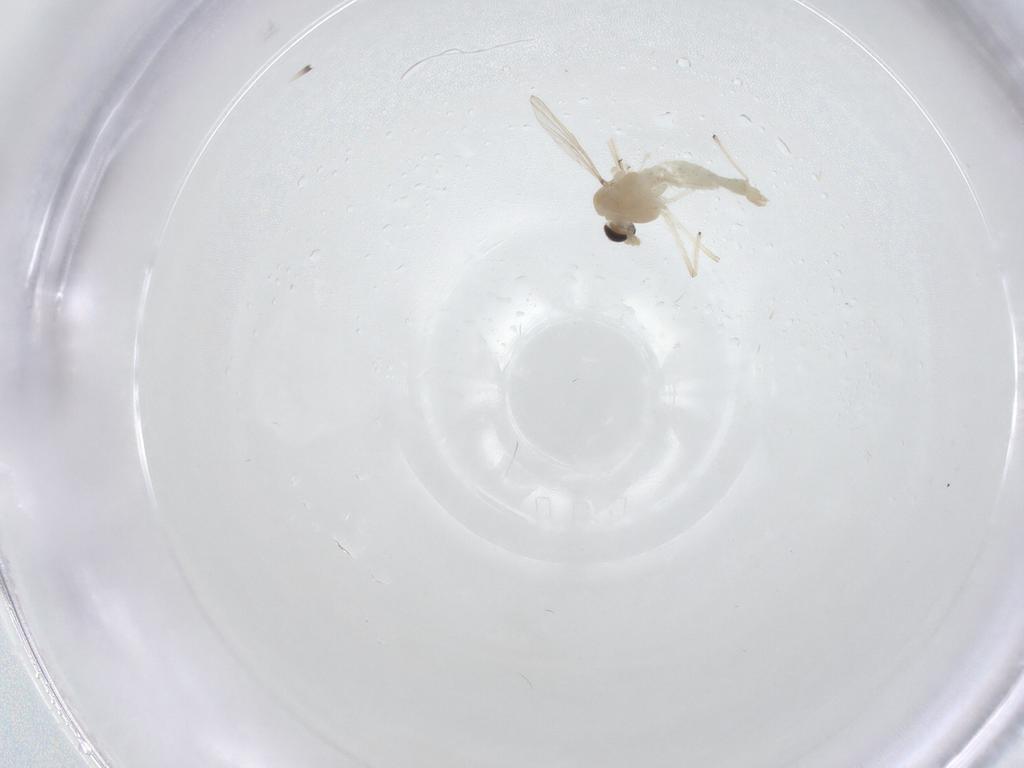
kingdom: Animalia
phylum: Arthropoda
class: Insecta
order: Diptera
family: Chironomidae
